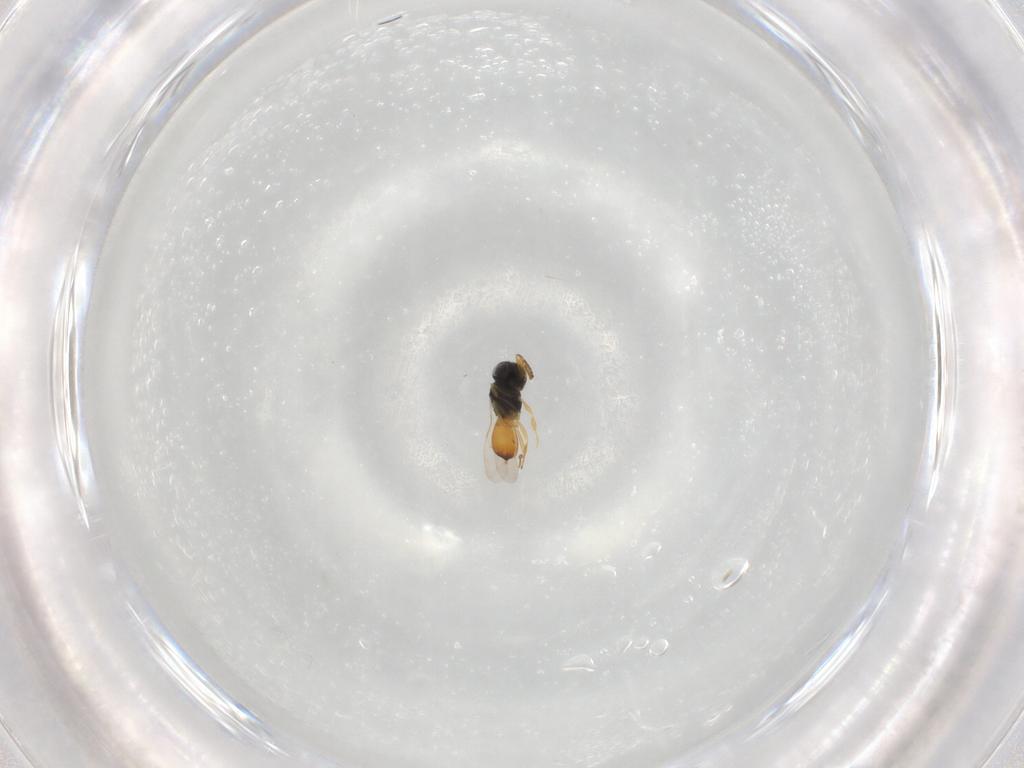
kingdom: Animalia
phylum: Arthropoda
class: Insecta
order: Hymenoptera
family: Scelionidae
